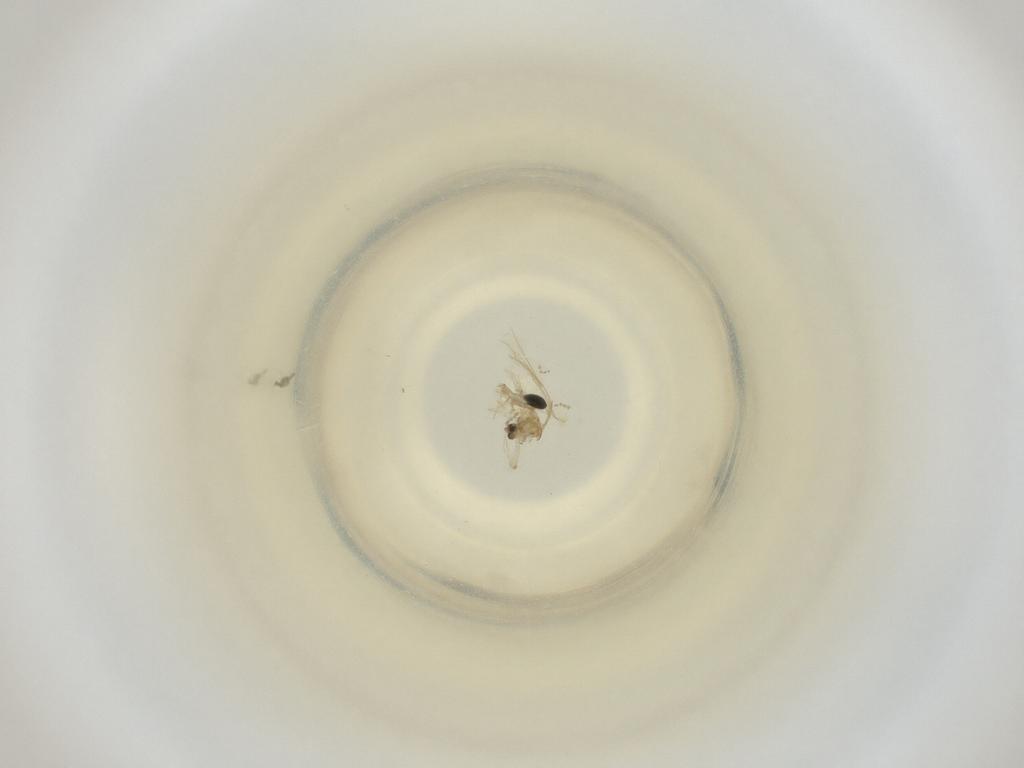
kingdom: Animalia
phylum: Arthropoda
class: Insecta
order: Diptera
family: Cecidomyiidae
